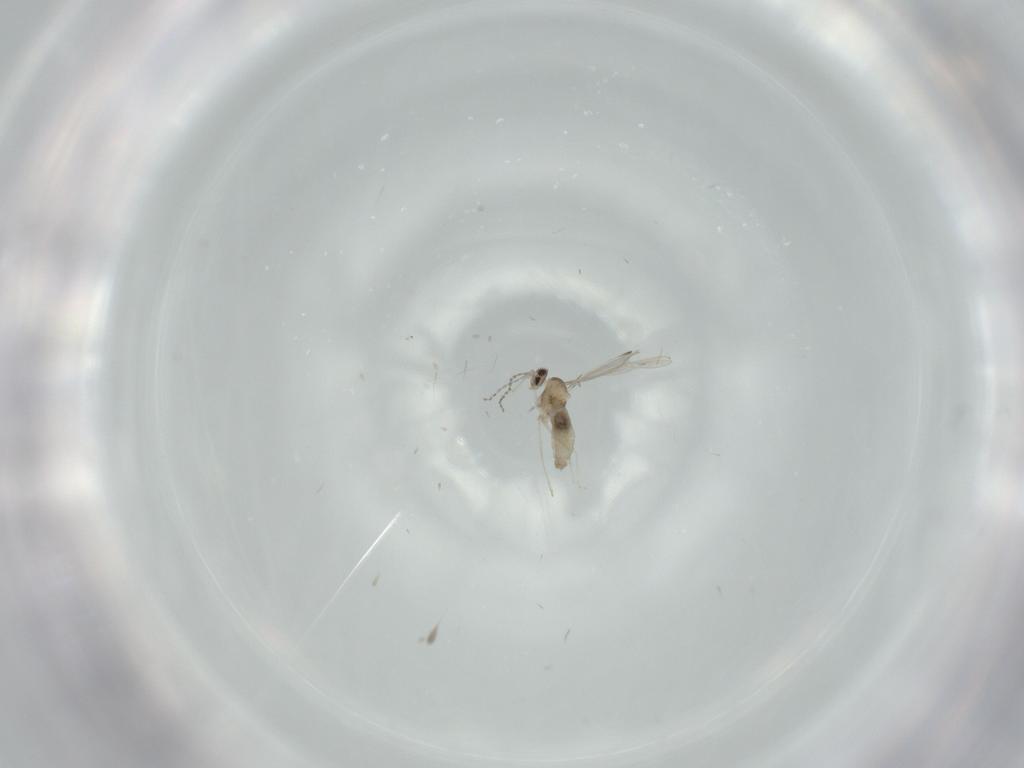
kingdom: Animalia
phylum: Arthropoda
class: Insecta
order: Diptera
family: Cecidomyiidae
